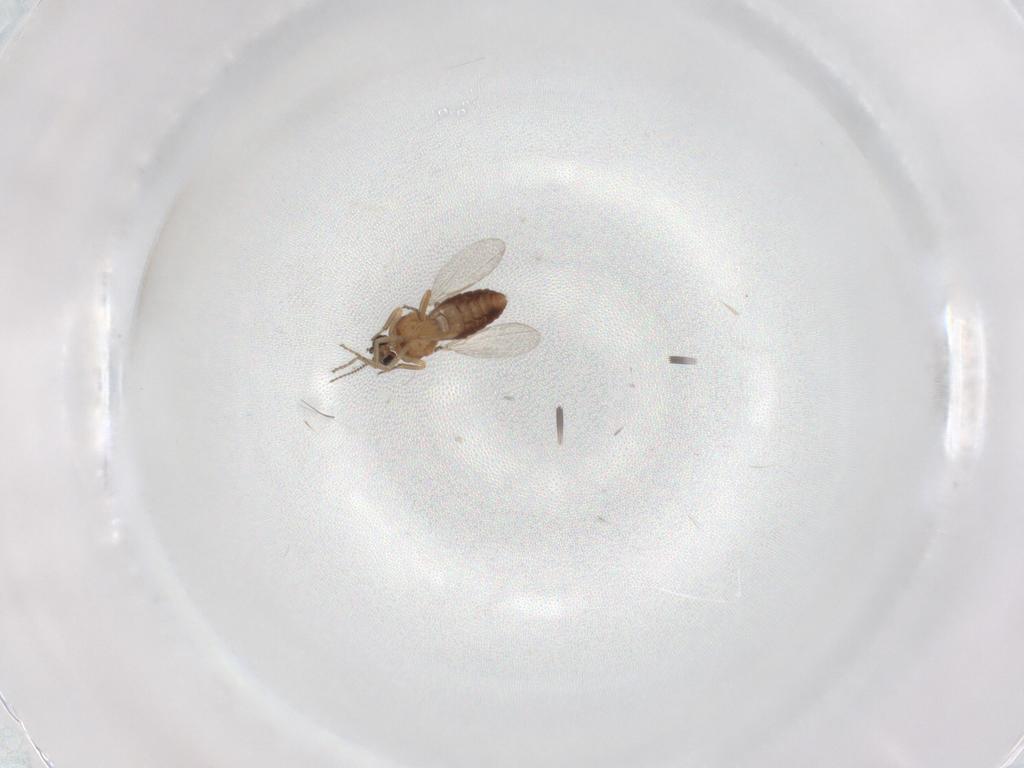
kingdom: Animalia
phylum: Arthropoda
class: Insecta
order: Diptera
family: Ceratopogonidae
